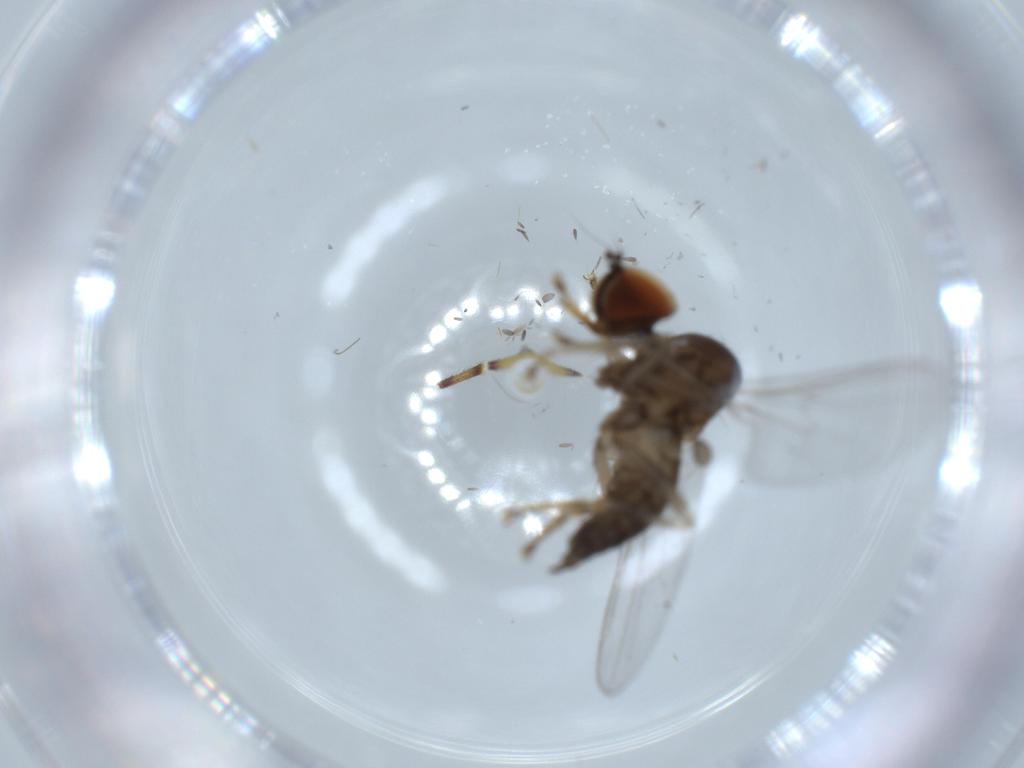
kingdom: Animalia
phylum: Arthropoda
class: Insecta
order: Diptera
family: Hybotidae
